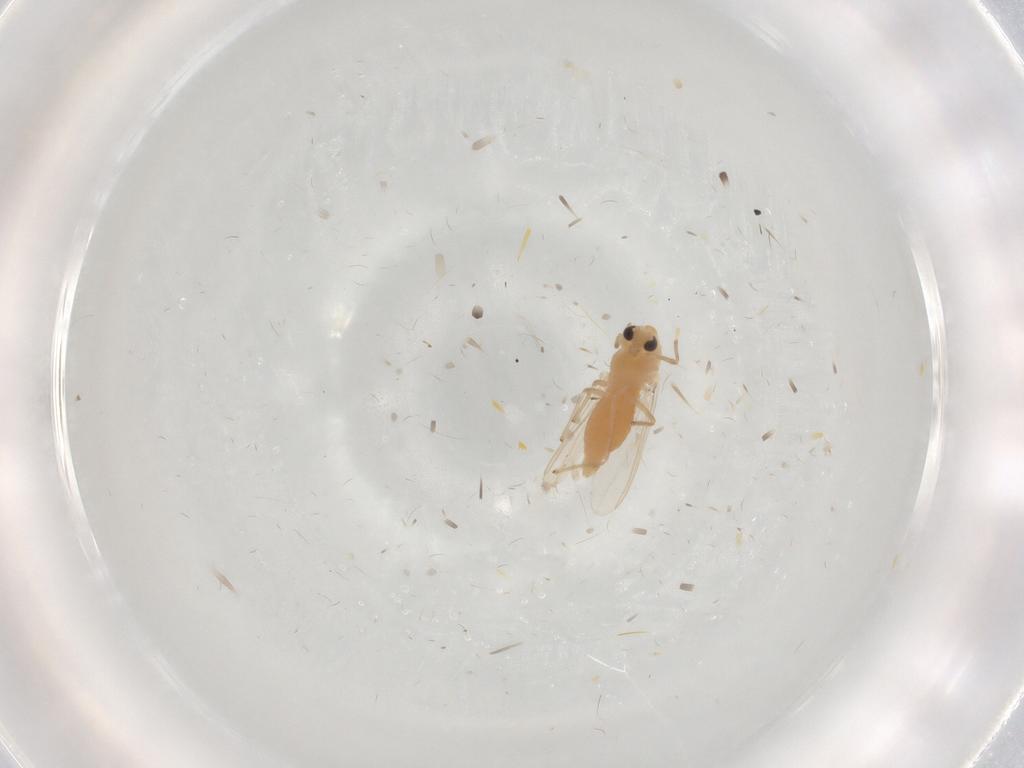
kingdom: Animalia
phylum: Arthropoda
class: Insecta
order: Diptera
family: Chironomidae
